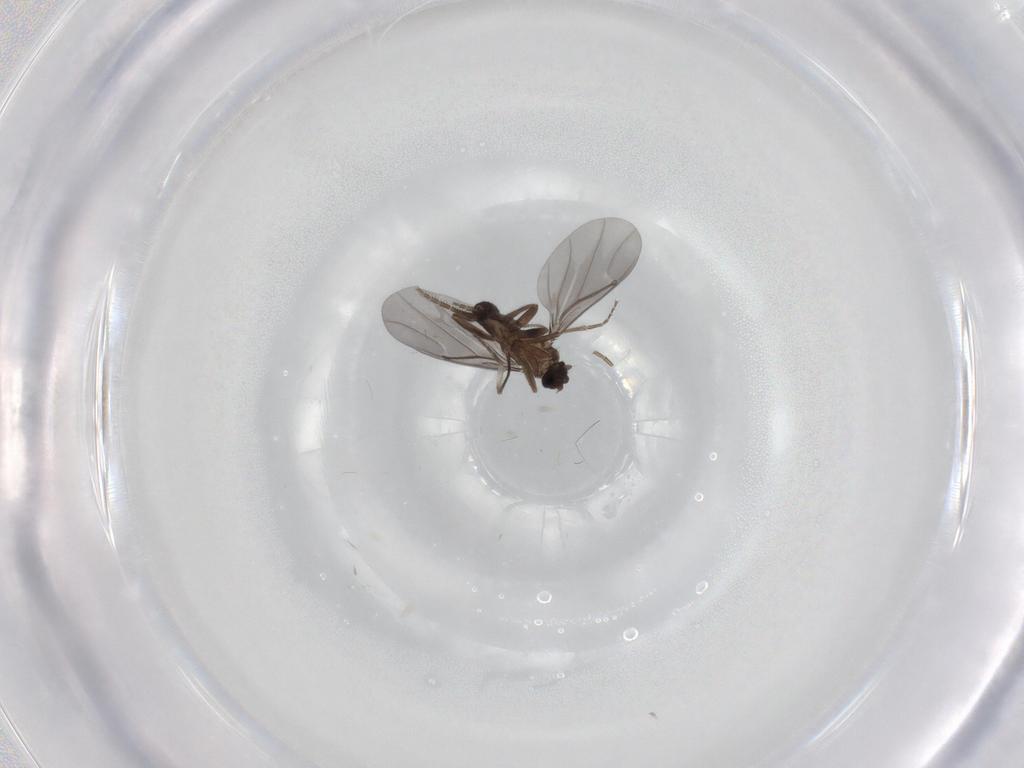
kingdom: Animalia
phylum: Arthropoda
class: Insecta
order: Diptera
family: Phoridae
